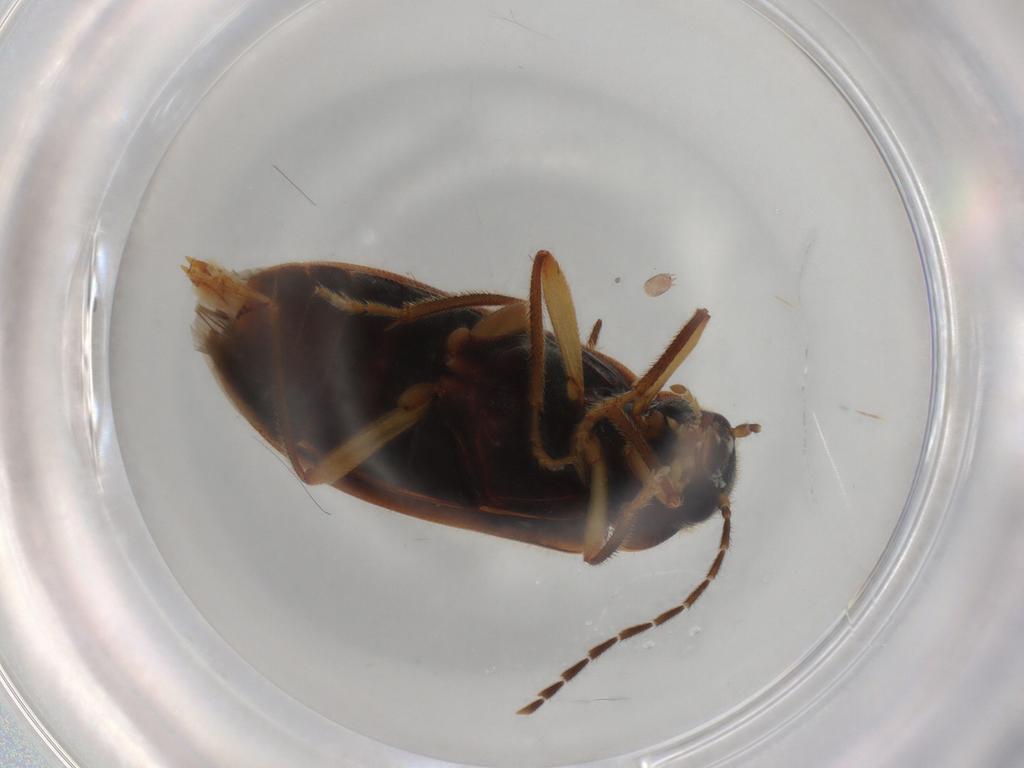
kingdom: Animalia
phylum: Arthropoda
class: Insecta
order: Coleoptera
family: Ptilodactylidae
